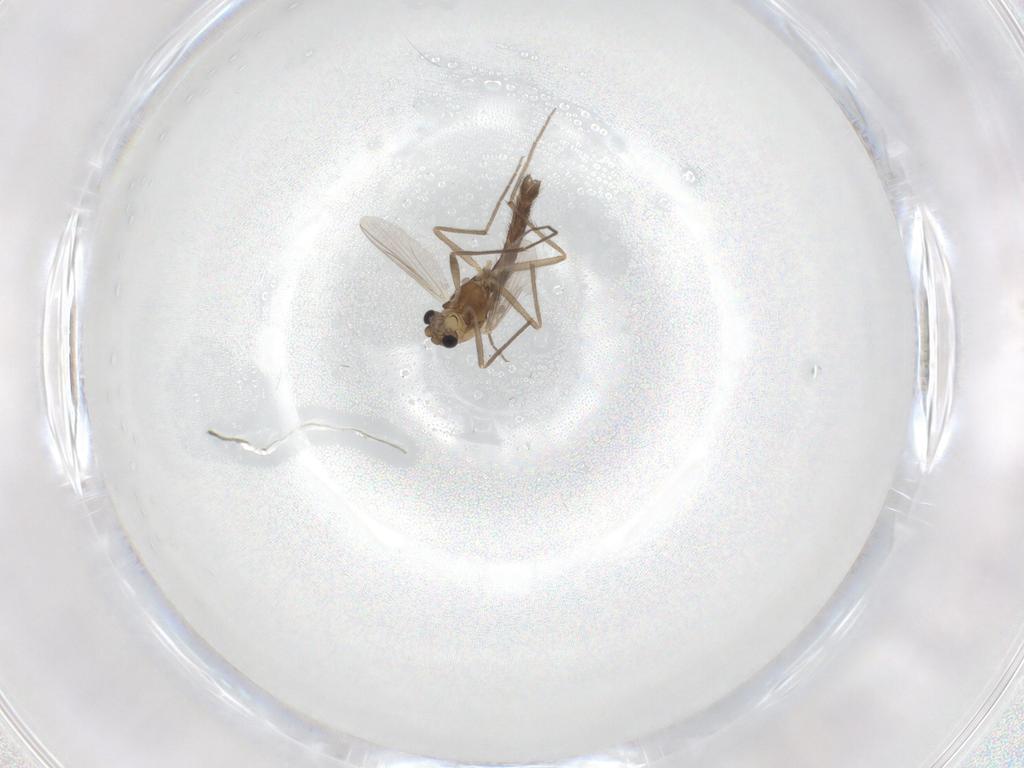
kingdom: Animalia
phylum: Arthropoda
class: Insecta
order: Diptera
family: Chironomidae
